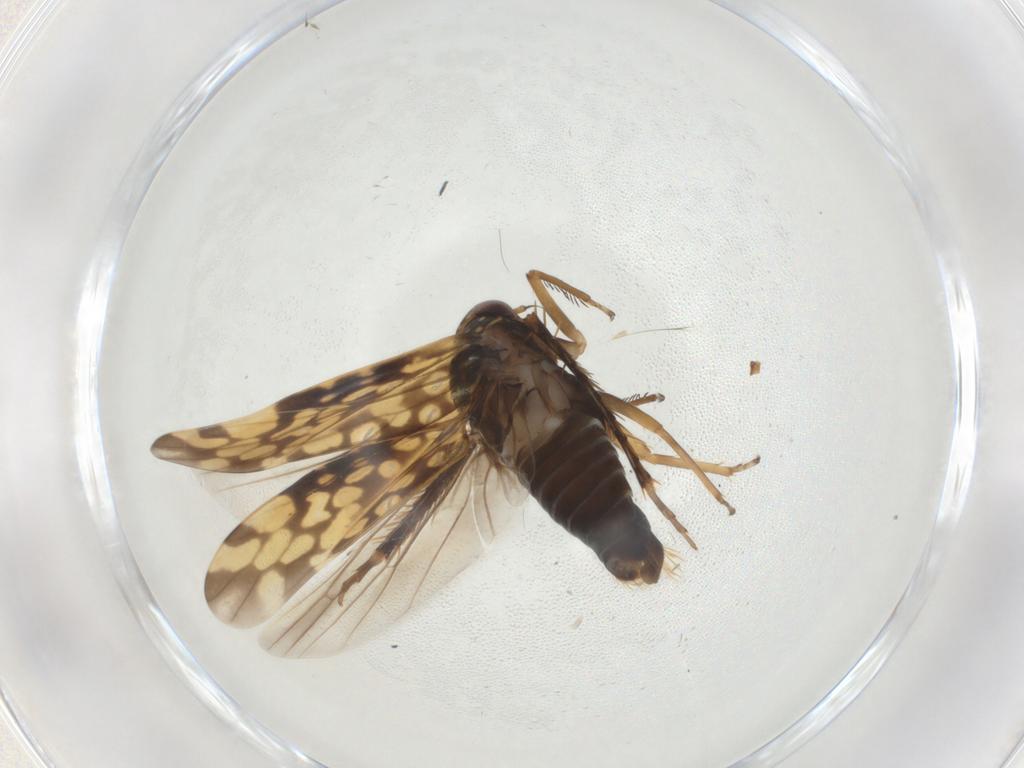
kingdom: Animalia
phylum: Arthropoda
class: Insecta
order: Hemiptera
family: Cicadellidae
